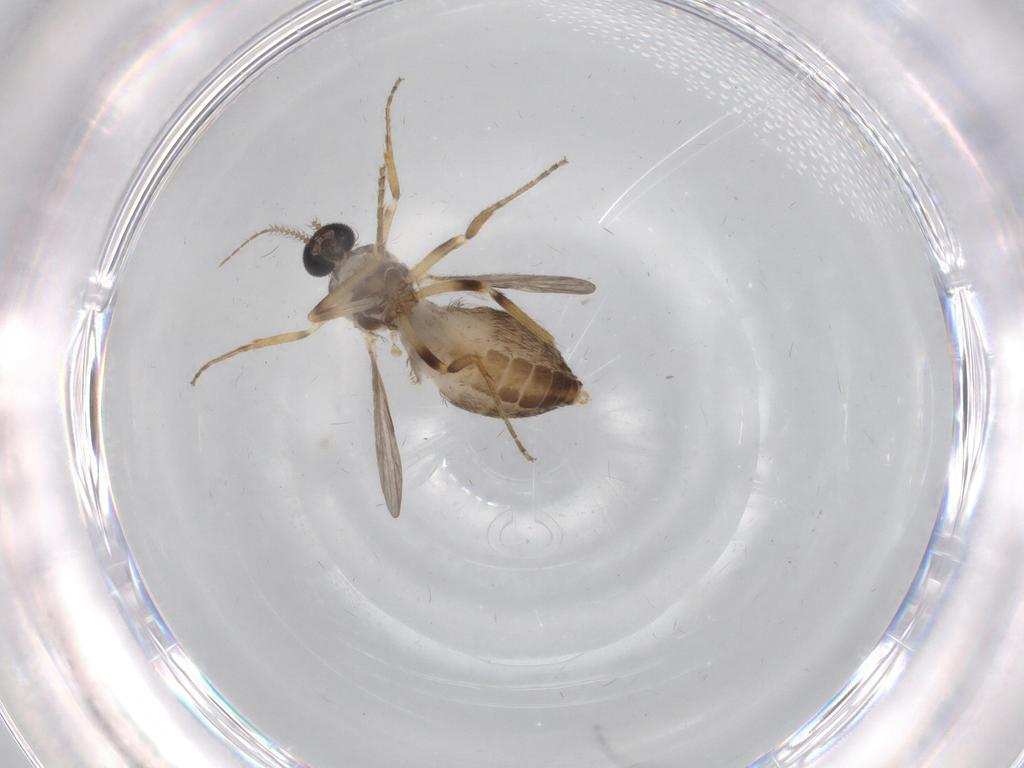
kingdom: Animalia
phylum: Arthropoda
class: Insecta
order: Diptera
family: Ceratopogonidae
